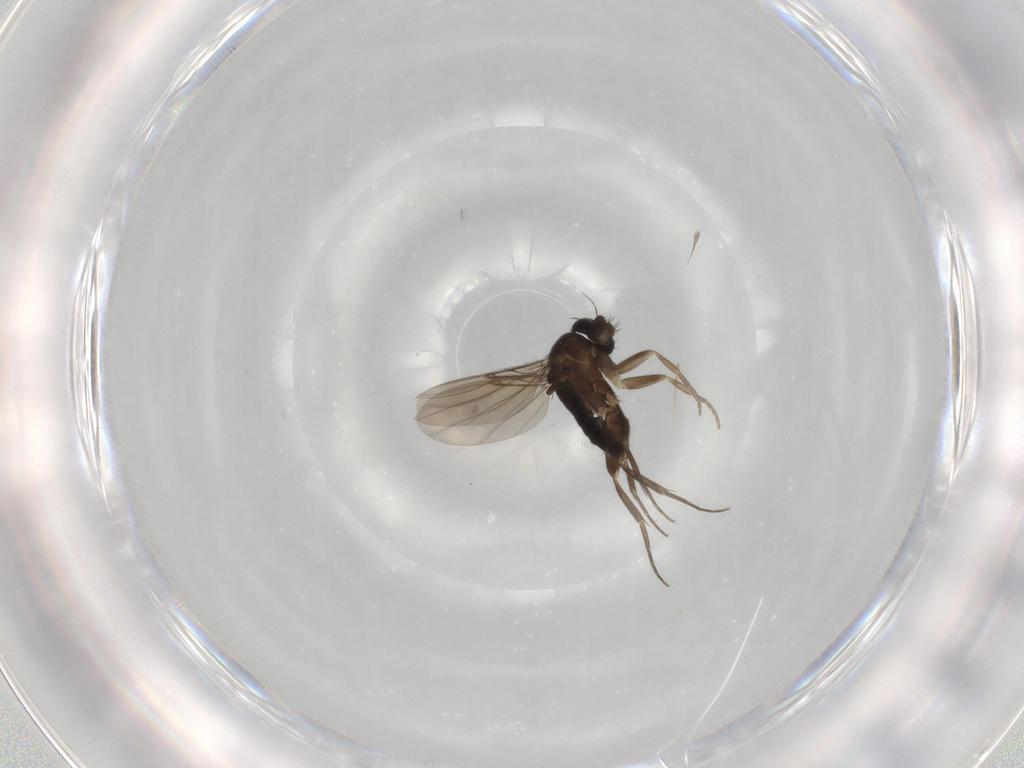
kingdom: Animalia
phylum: Arthropoda
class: Insecta
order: Diptera
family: Phoridae
